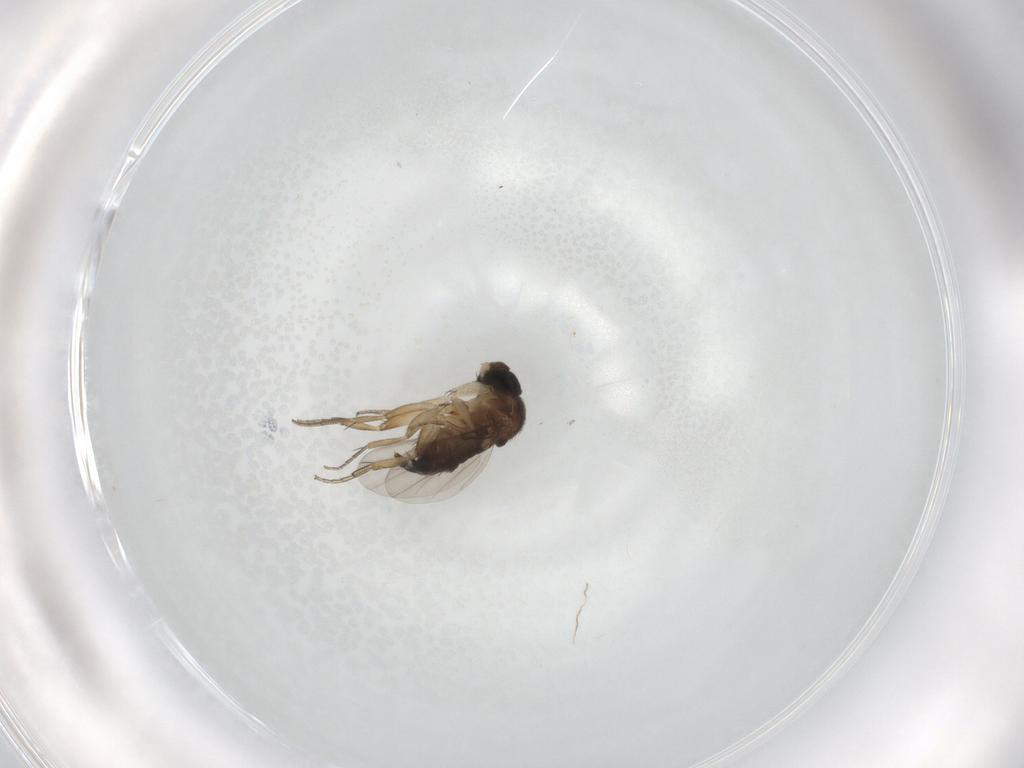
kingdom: Animalia
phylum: Arthropoda
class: Insecta
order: Diptera
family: Phoridae
